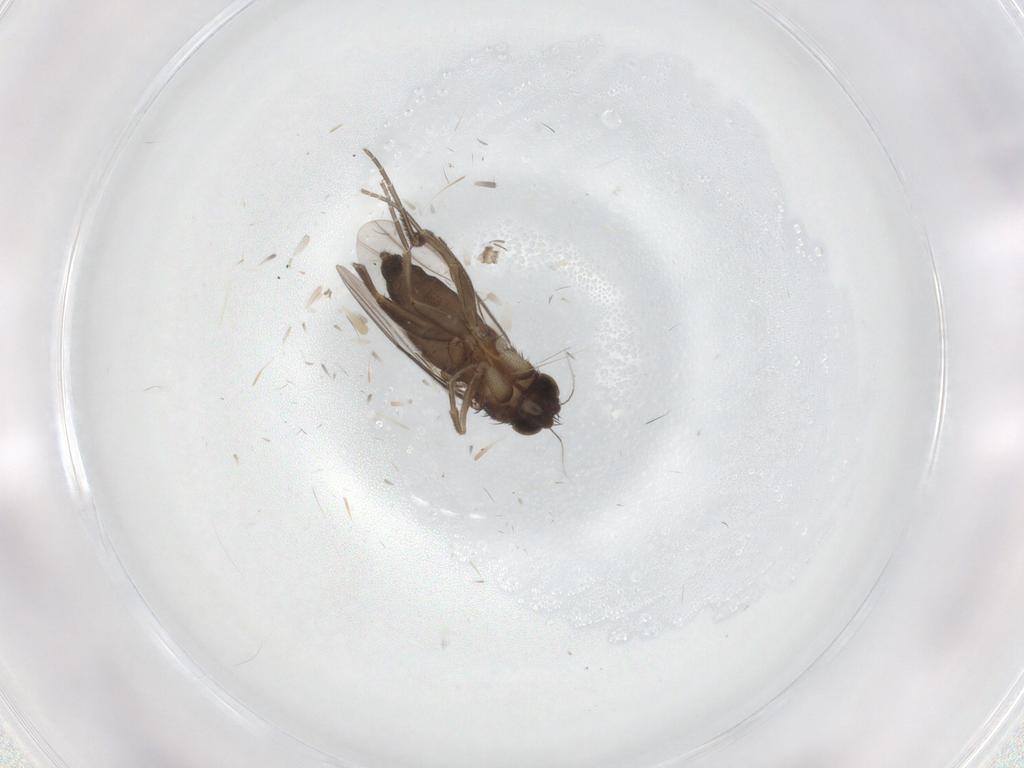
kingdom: Animalia
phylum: Arthropoda
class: Insecta
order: Diptera
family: Phoridae
